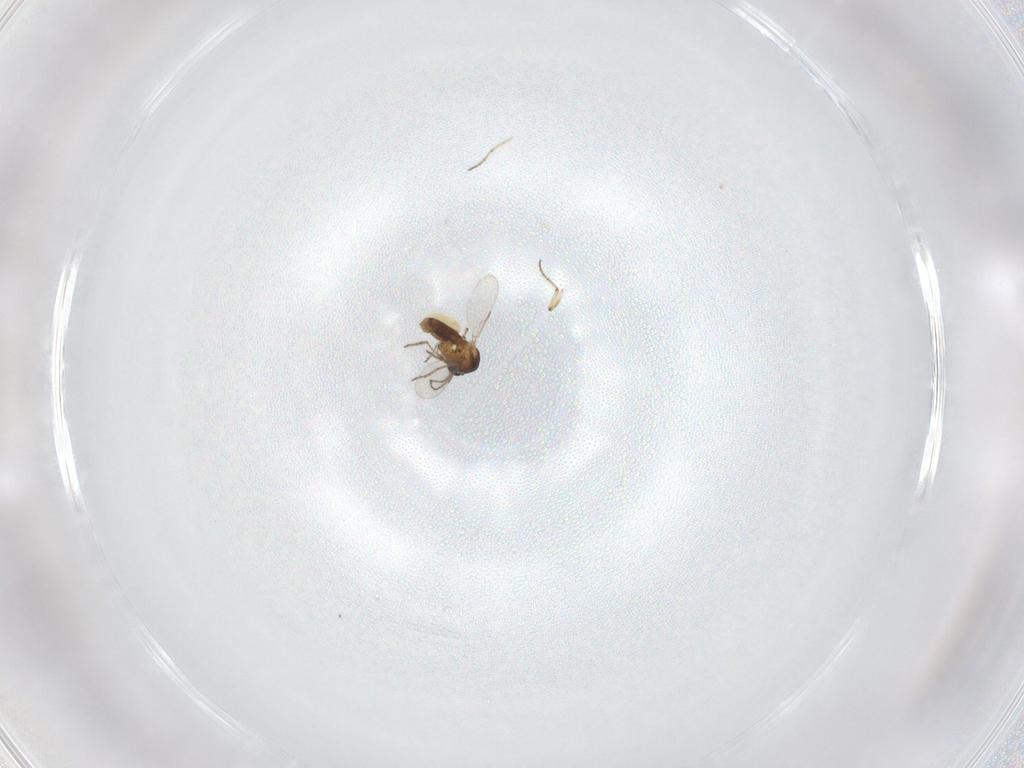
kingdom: Animalia
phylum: Arthropoda
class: Insecta
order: Diptera
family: Ceratopogonidae
